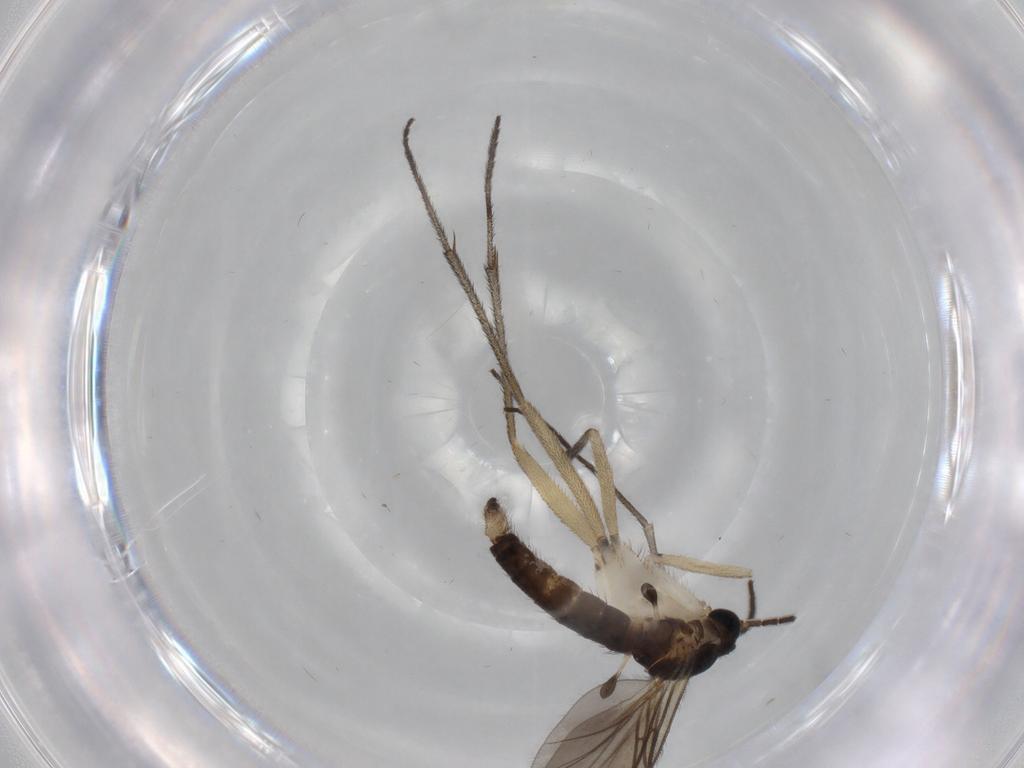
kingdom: Animalia
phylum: Arthropoda
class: Insecta
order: Diptera
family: Sciaridae
